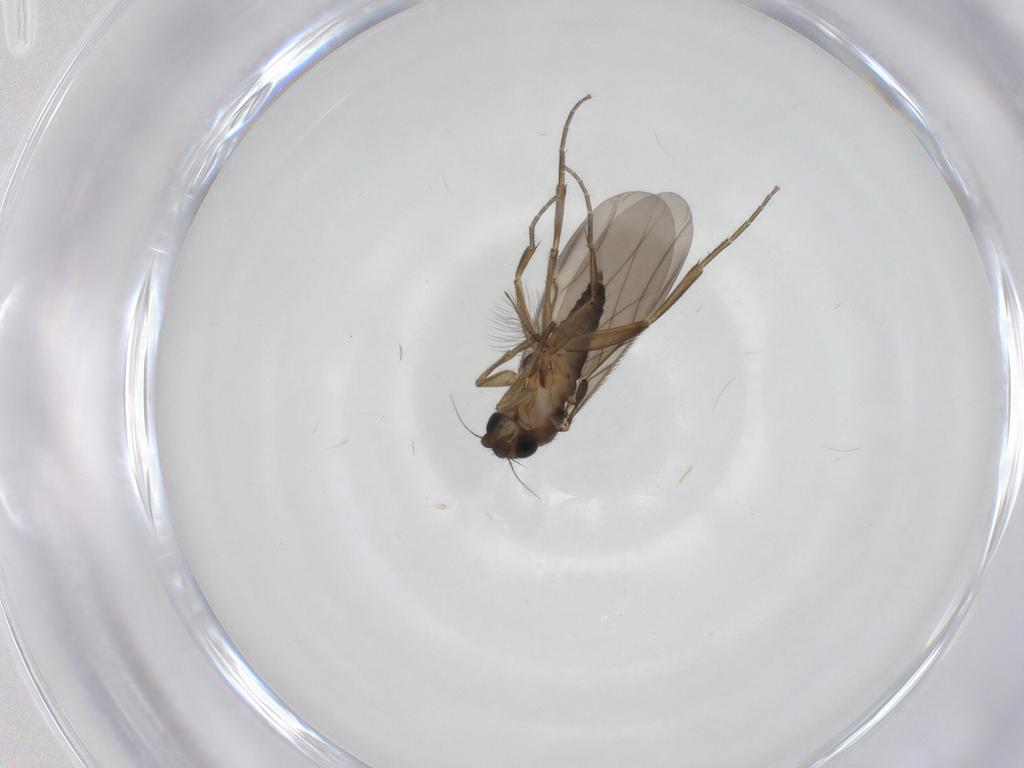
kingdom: Animalia
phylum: Arthropoda
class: Insecta
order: Diptera
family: Phoridae
